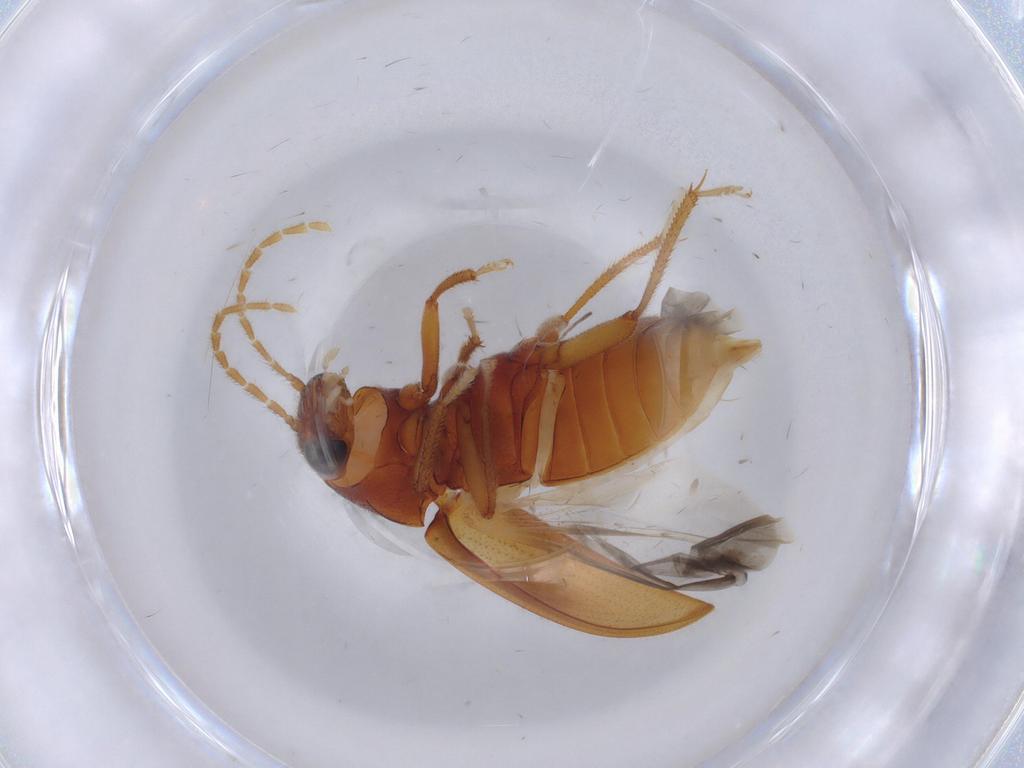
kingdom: Animalia
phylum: Arthropoda
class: Insecta
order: Coleoptera
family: Ptilodactylidae
